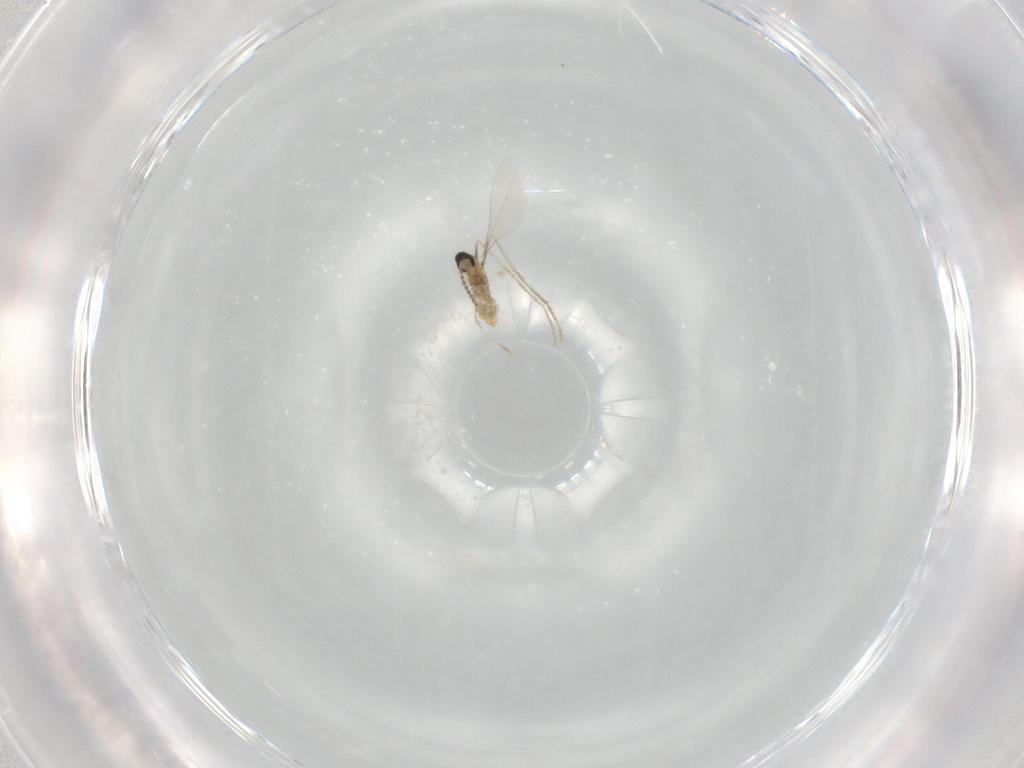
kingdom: Animalia
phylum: Arthropoda
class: Insecta
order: Diptera
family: Cecidomyiidae
